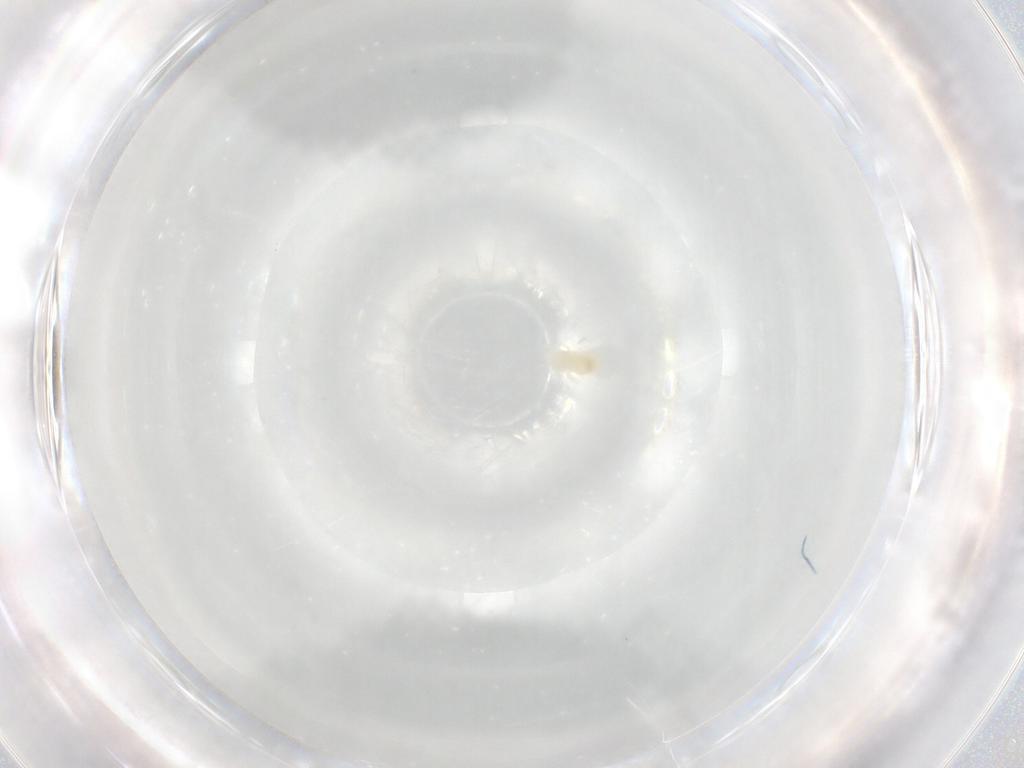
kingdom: Animalia
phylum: Arthropoda
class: Arachnida
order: Trombidiformes
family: Eupodidae
